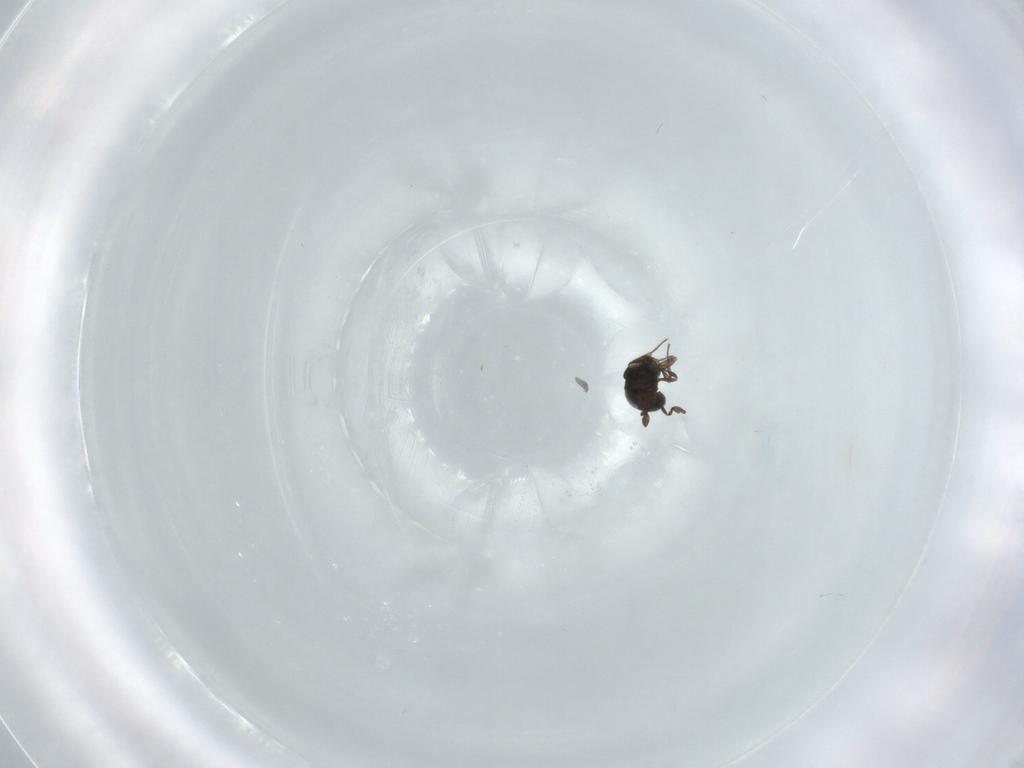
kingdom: Animalia
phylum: Arthropoda
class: Insecta
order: Hymenoptera
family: Scelionidae
